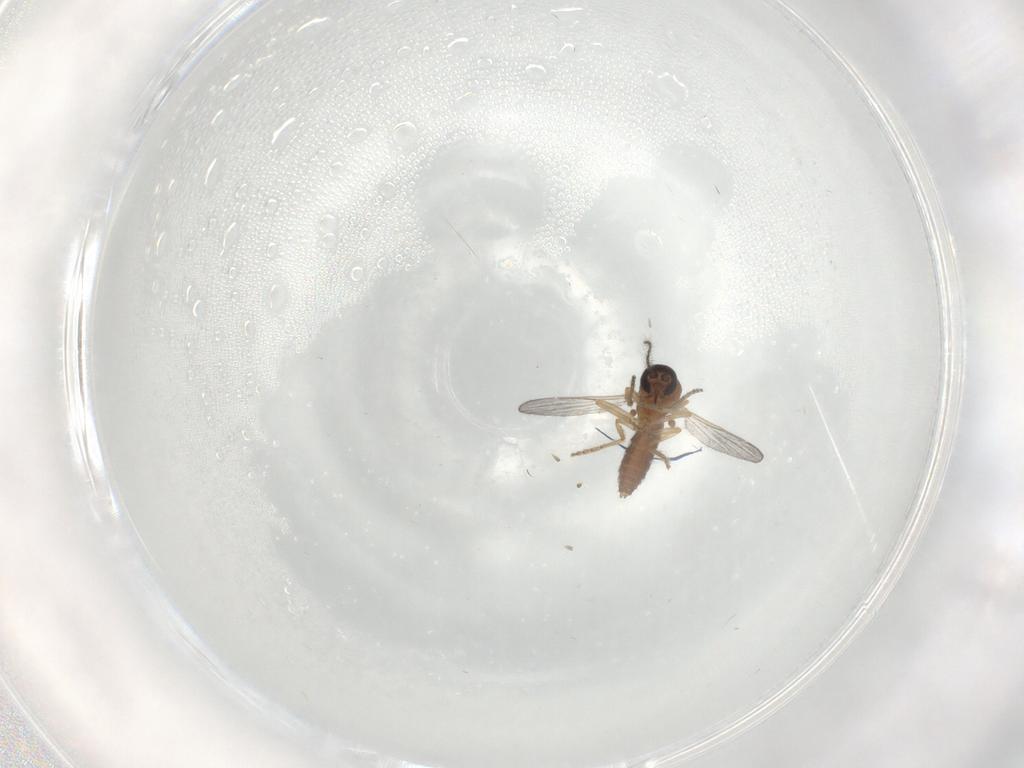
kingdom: Animalia
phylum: Arthropoda
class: Insecta
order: Diptera
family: Ceratopogonidae
